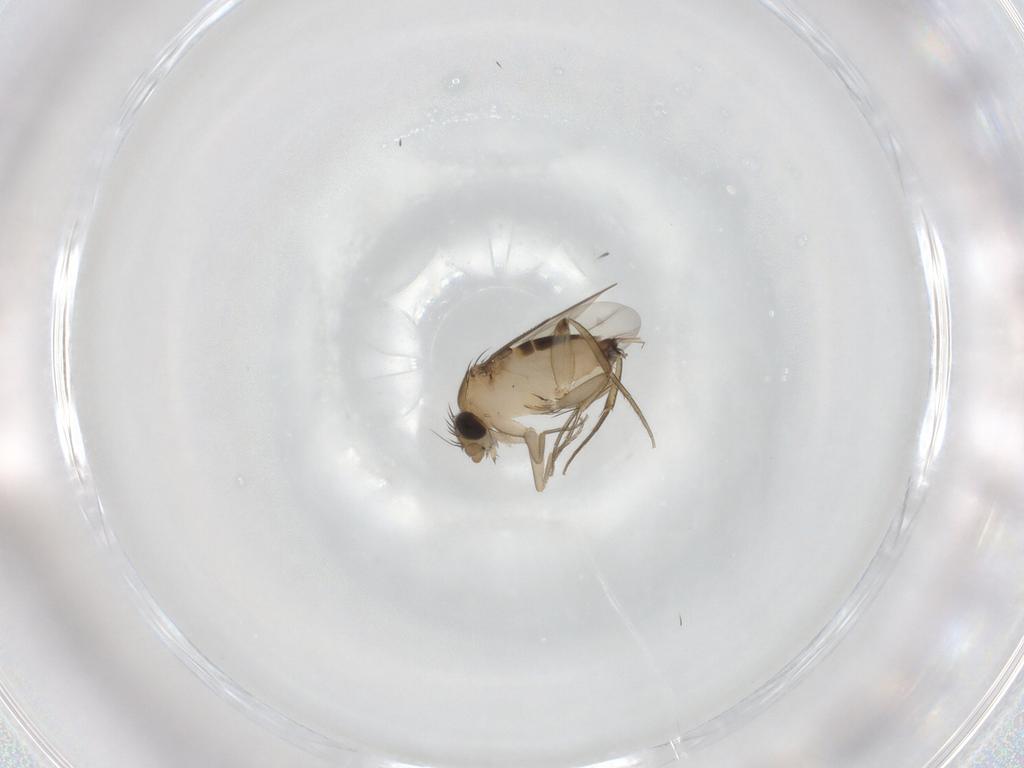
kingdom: Animalia
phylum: Arthropoda
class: Insecta
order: Diptera
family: Phoridae
